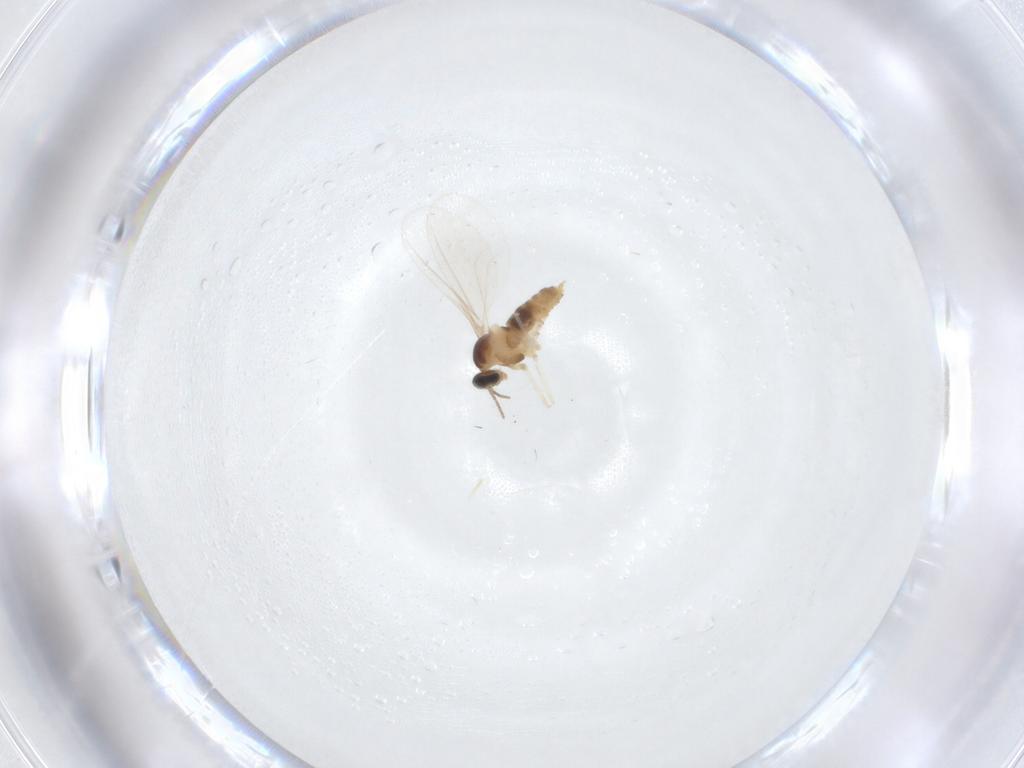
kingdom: Animalia
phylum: Arthropoda
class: Insecta
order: Diptera
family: Cecidomyiidae
